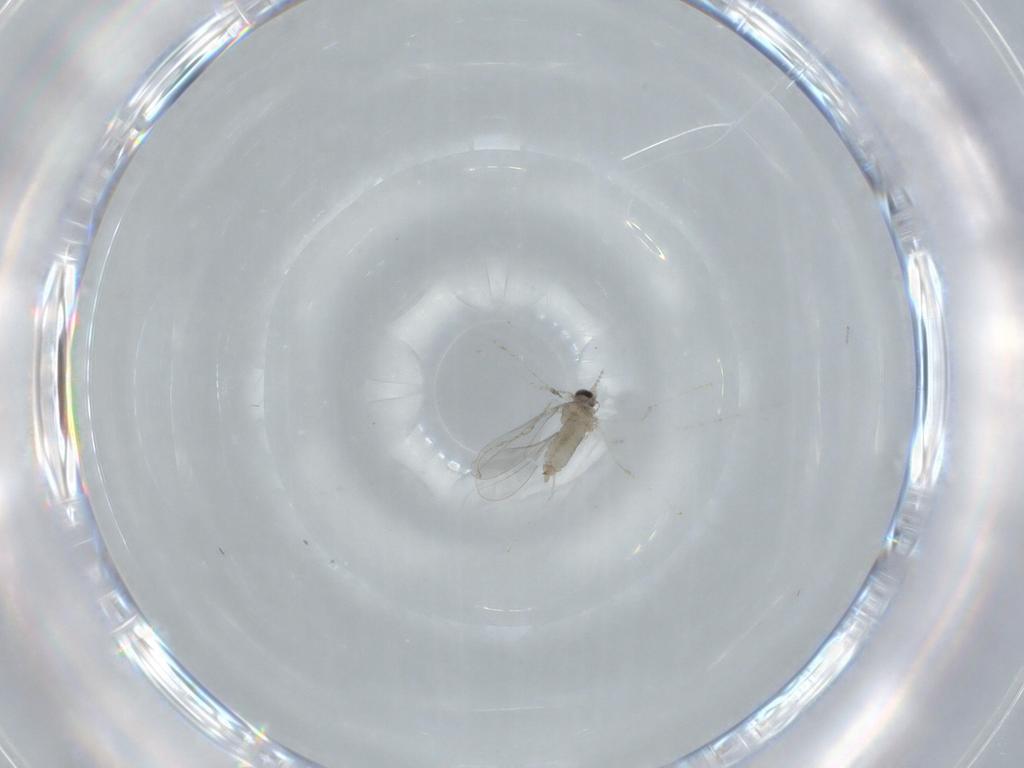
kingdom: Animalia
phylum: Arthropoda
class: Insecta
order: Diptera
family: Cecidomyiidae
